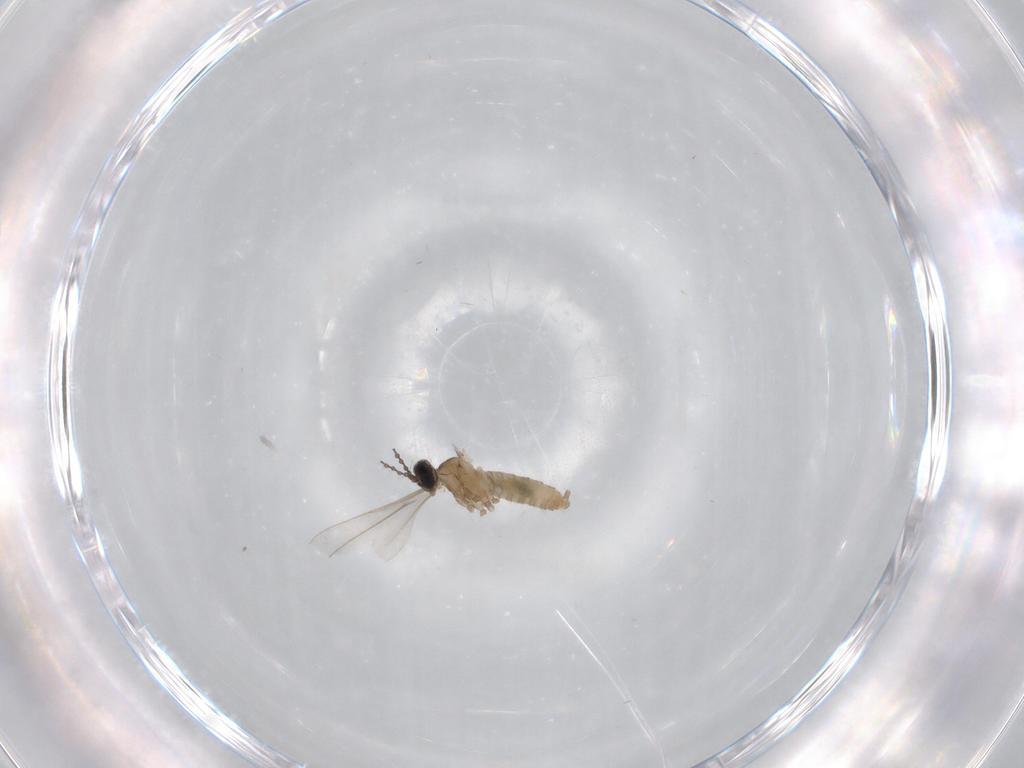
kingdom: Animalia
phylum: Arthropoda
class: Insecta
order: Diptera
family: Cecidomyiidae
